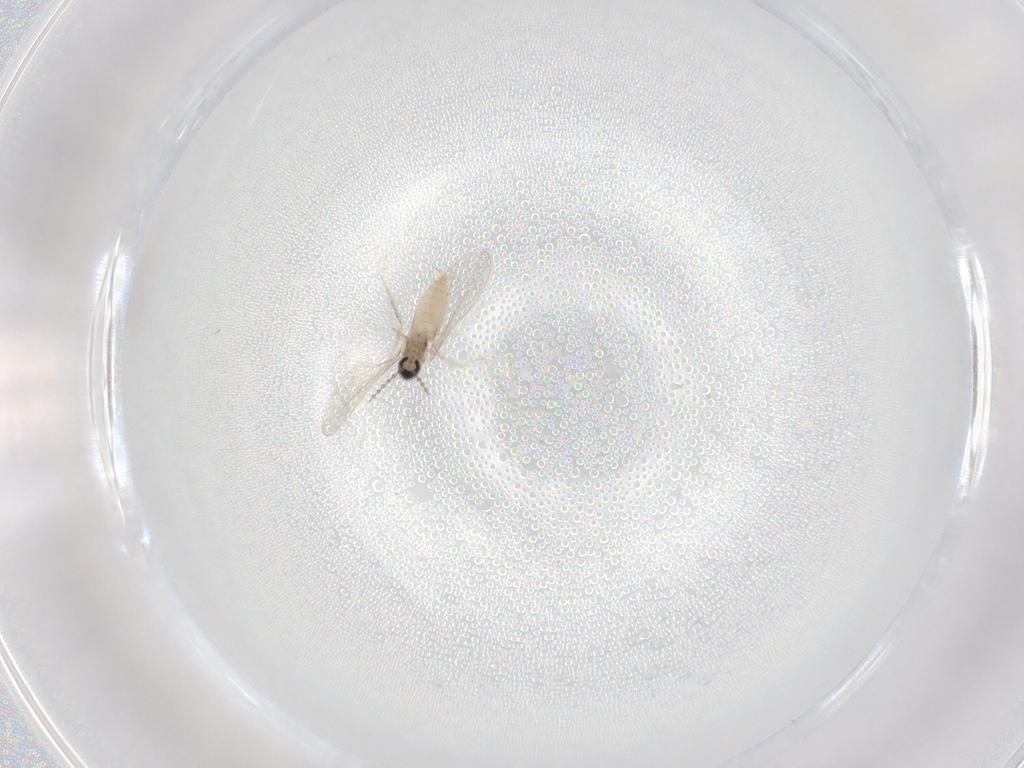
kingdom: Animalia
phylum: Arthropoda
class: Insecta
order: Diptera
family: Cecidomyiidae
